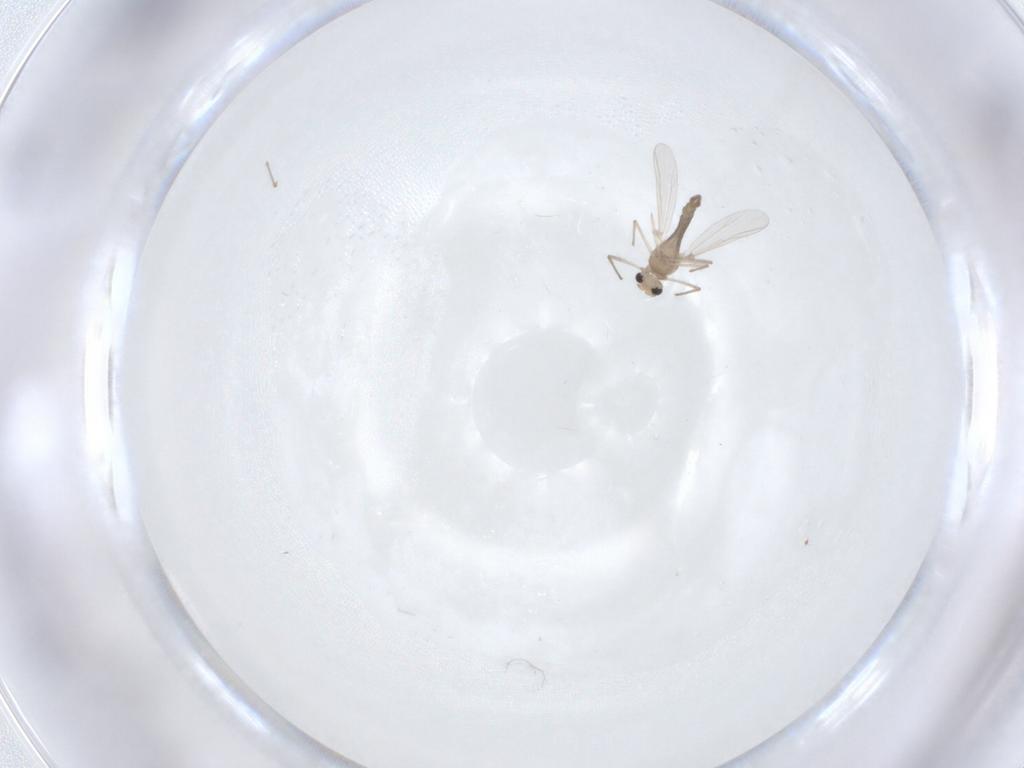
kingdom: Animalia
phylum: Arthropoda
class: Insecta
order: Diptera
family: Chironomidae
